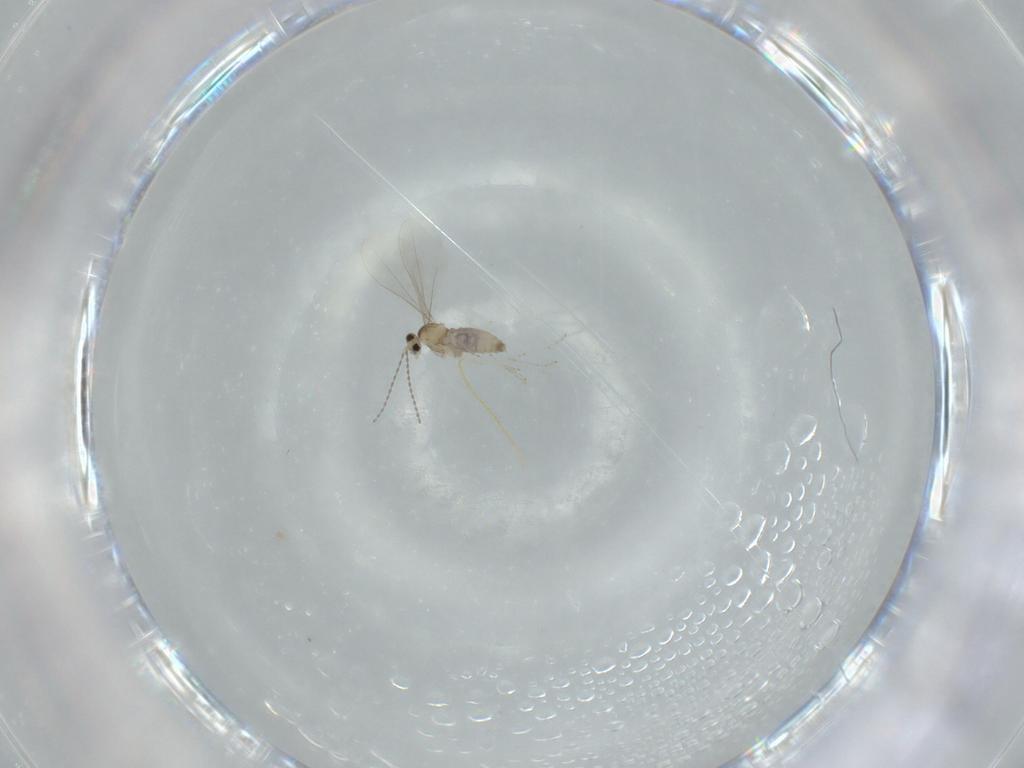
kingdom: Animalia
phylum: Arthropoda
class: Insecta
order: Diptera
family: Cecidomyiidae
